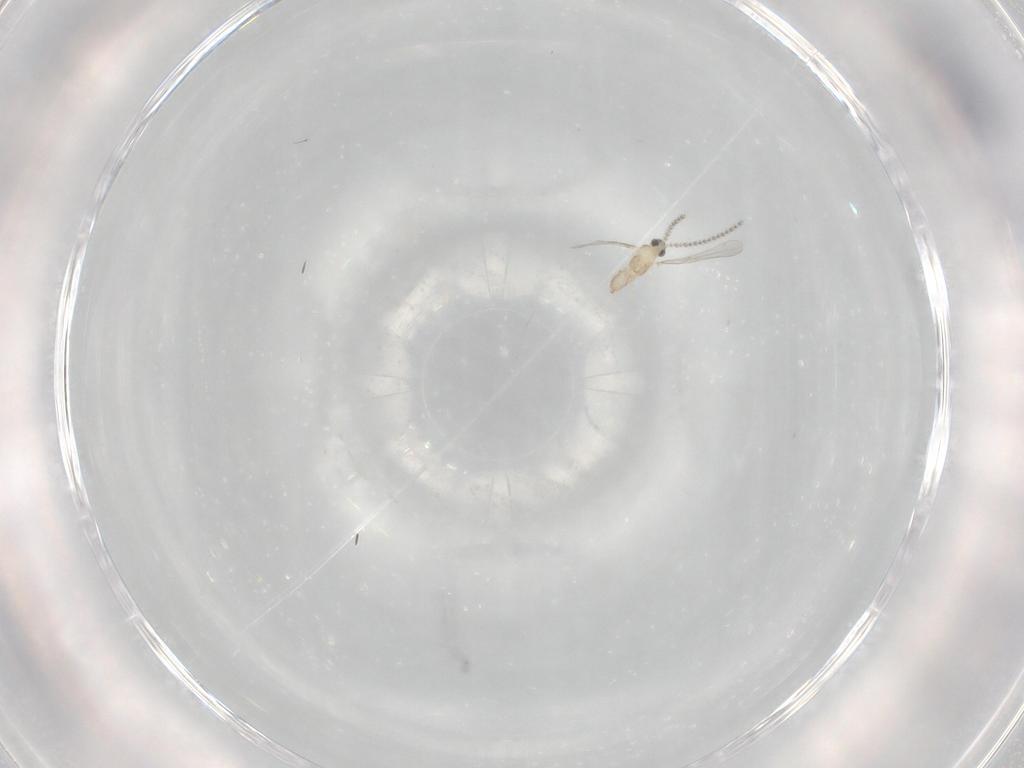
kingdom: Animalia
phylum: Arthropoda
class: Insecta
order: Diptera
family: Cecidomyiidae
